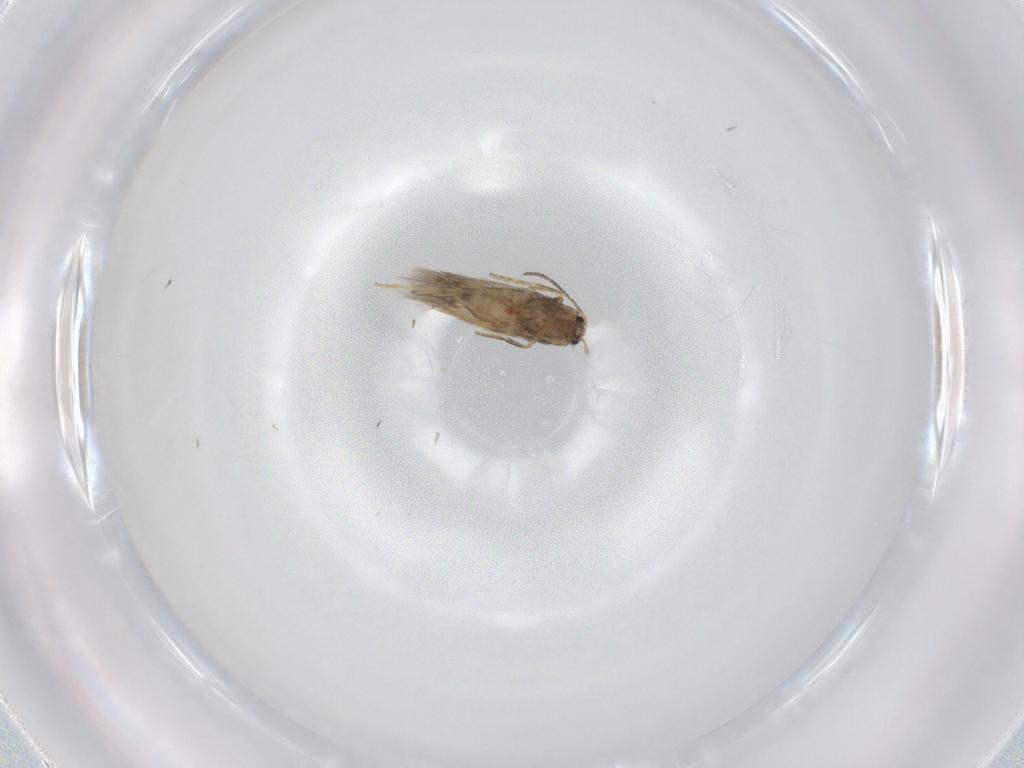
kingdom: Animalia
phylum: Arthropoda
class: Insecta
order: Lepidoptera
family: Nepticulidae
